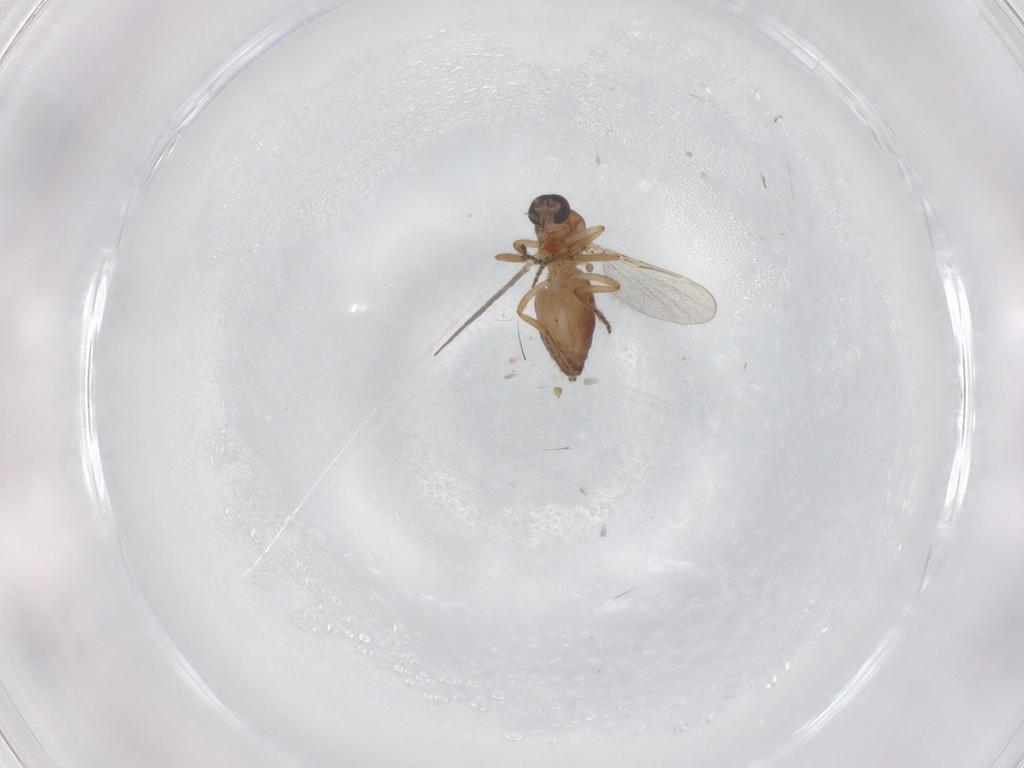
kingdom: Animalia
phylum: Arthropoda
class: Insecta
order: Diptera
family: Ceratopogonidae
